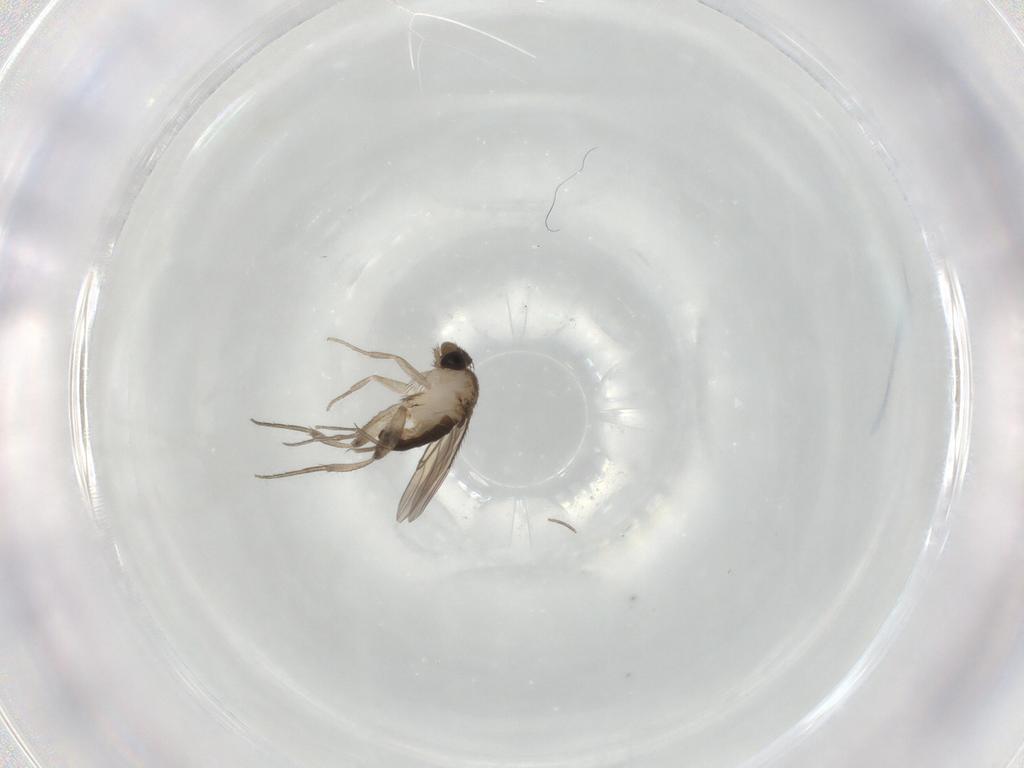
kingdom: Animalia
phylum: Arthropoda
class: Insecta
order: Diptera
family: Phoridae
